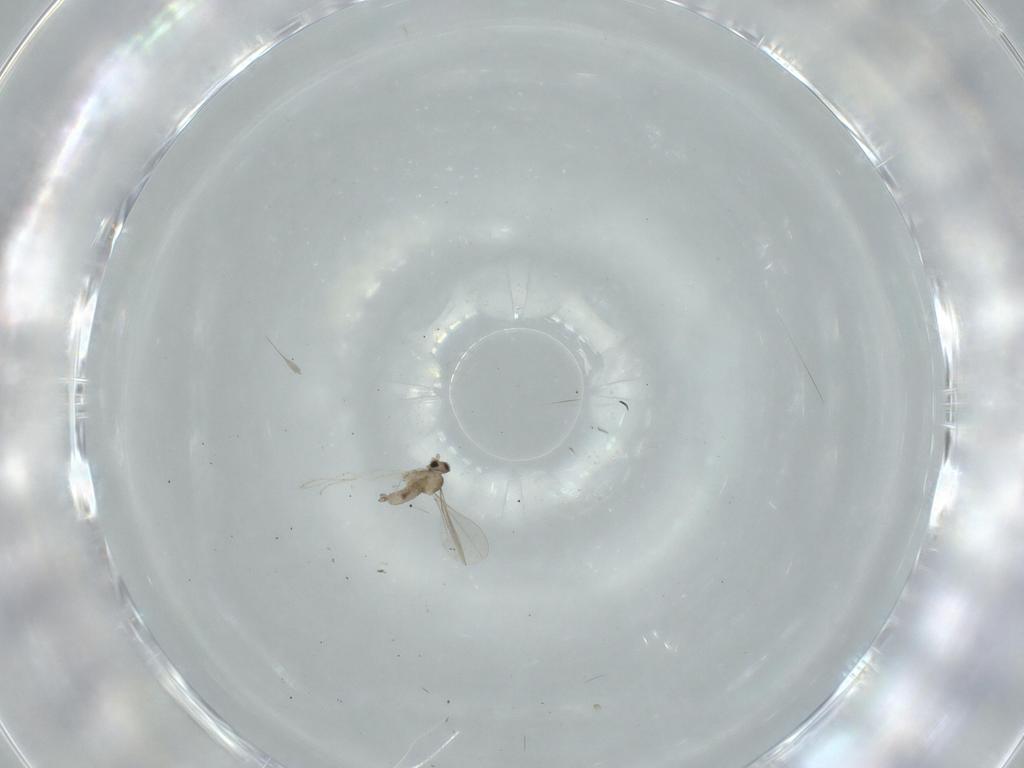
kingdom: Animalia
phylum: Arthropoda
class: Insecta
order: Diptera
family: Cecidomyiidae
